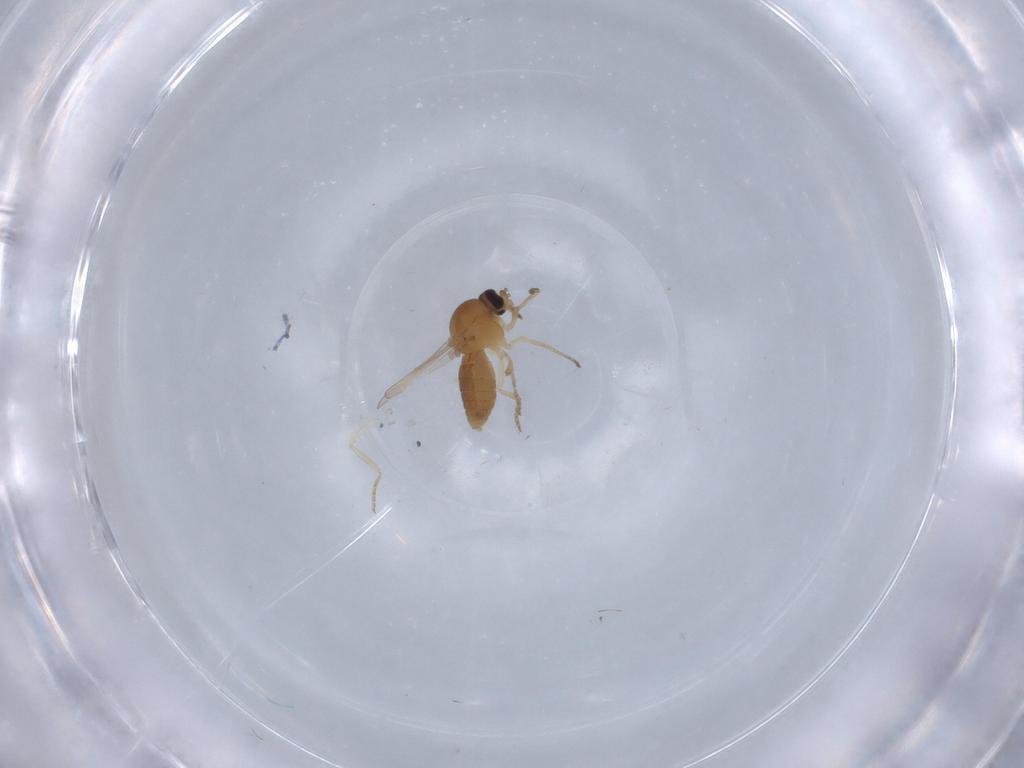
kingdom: Animalia
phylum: Arthropoda
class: Insecta
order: Diptera
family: Ceratopogonidae
